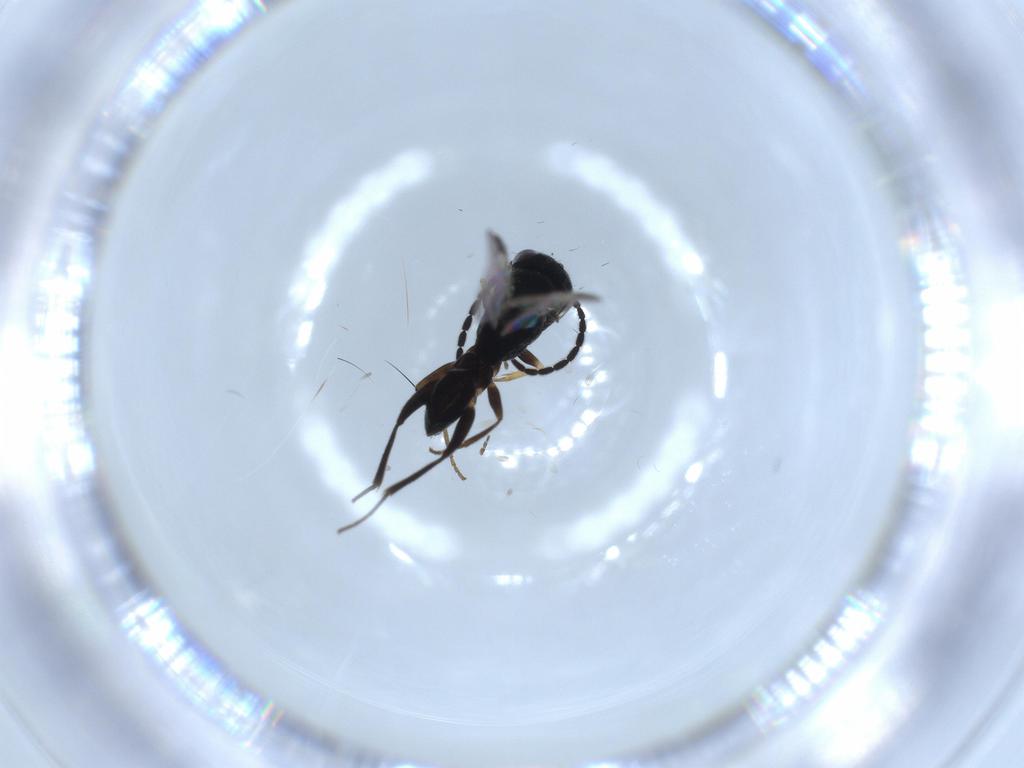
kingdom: Animalia
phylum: Arthropoda
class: Insecta
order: Hymenoptera
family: Dryinidae
